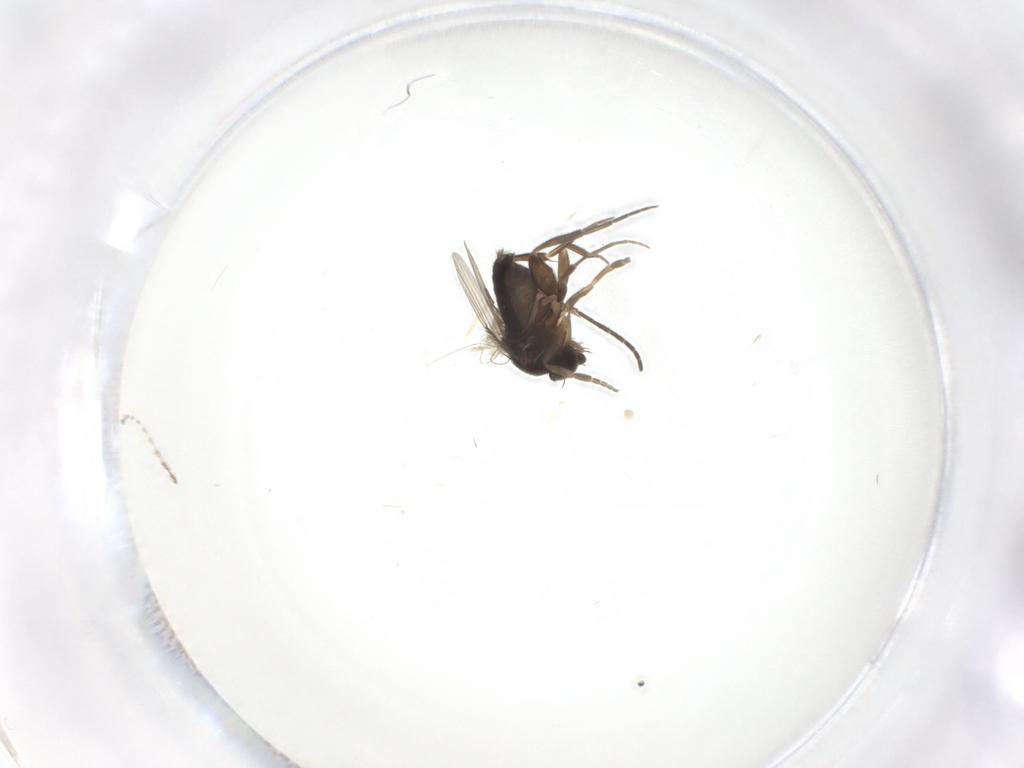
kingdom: Animalia
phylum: Arthropoda
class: Insecta
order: Diptera
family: Phoridae
